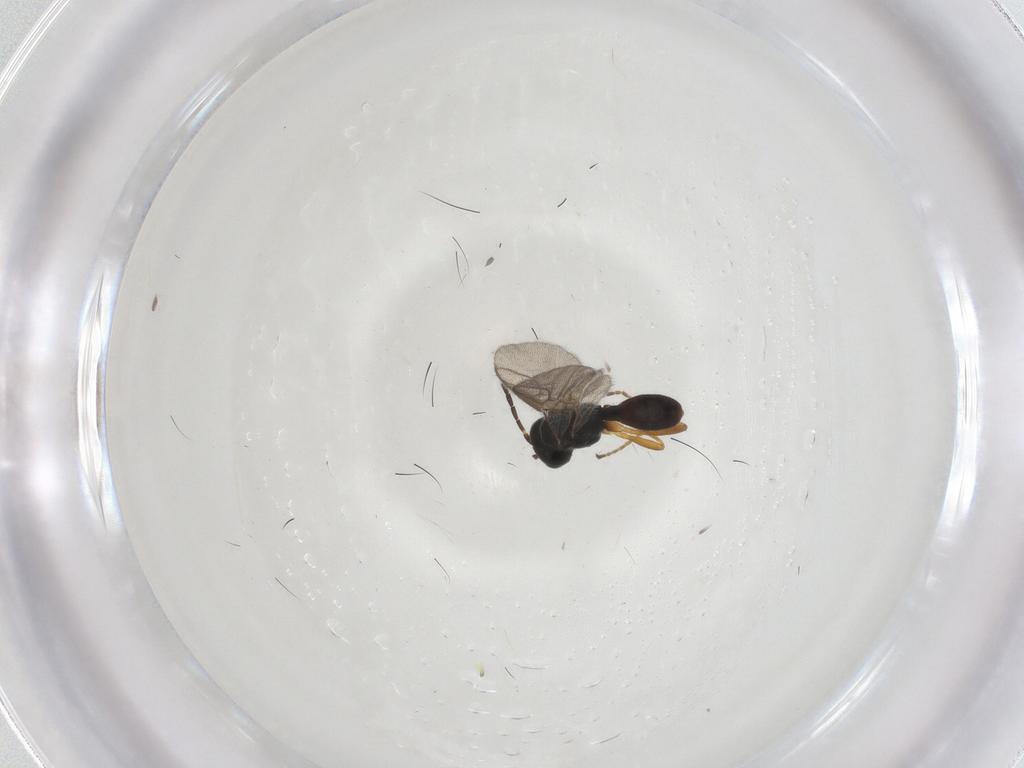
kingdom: Animalia
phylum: Arthropoda
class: Insecta
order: Hymenoptera
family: Braconidae
